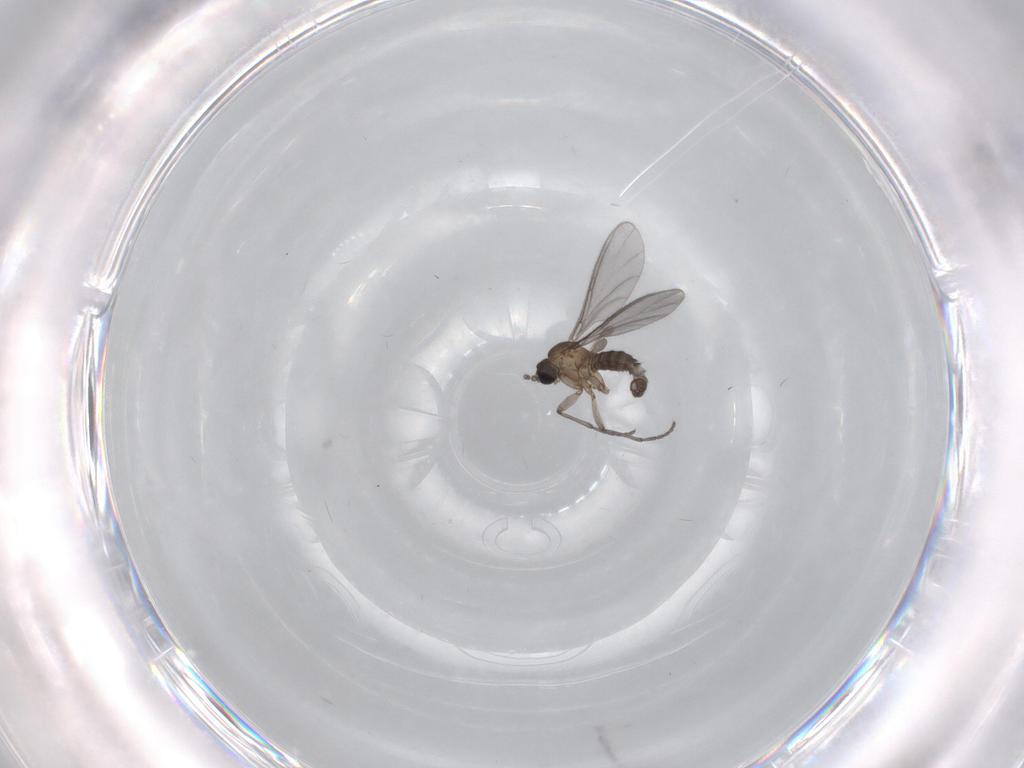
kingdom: Animalia
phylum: Arthropoda
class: Insecta
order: Diptera
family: Sciaridae
